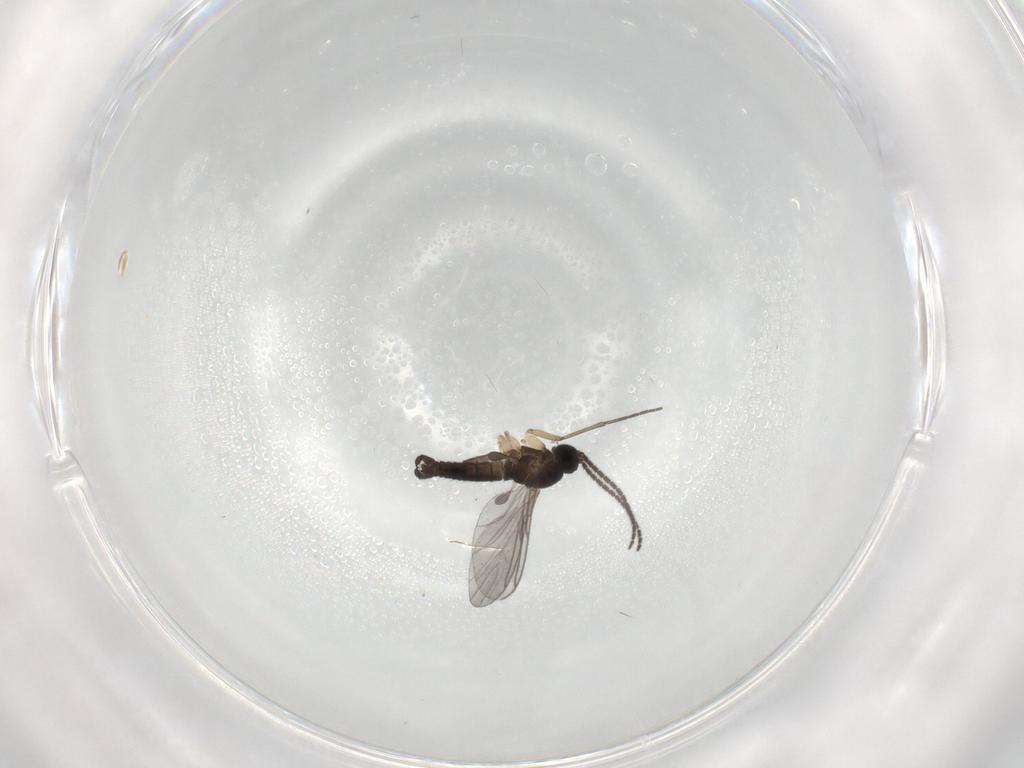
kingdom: Animalia
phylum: Arthropoda
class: Insecta
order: Diptera
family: Sciaridae
